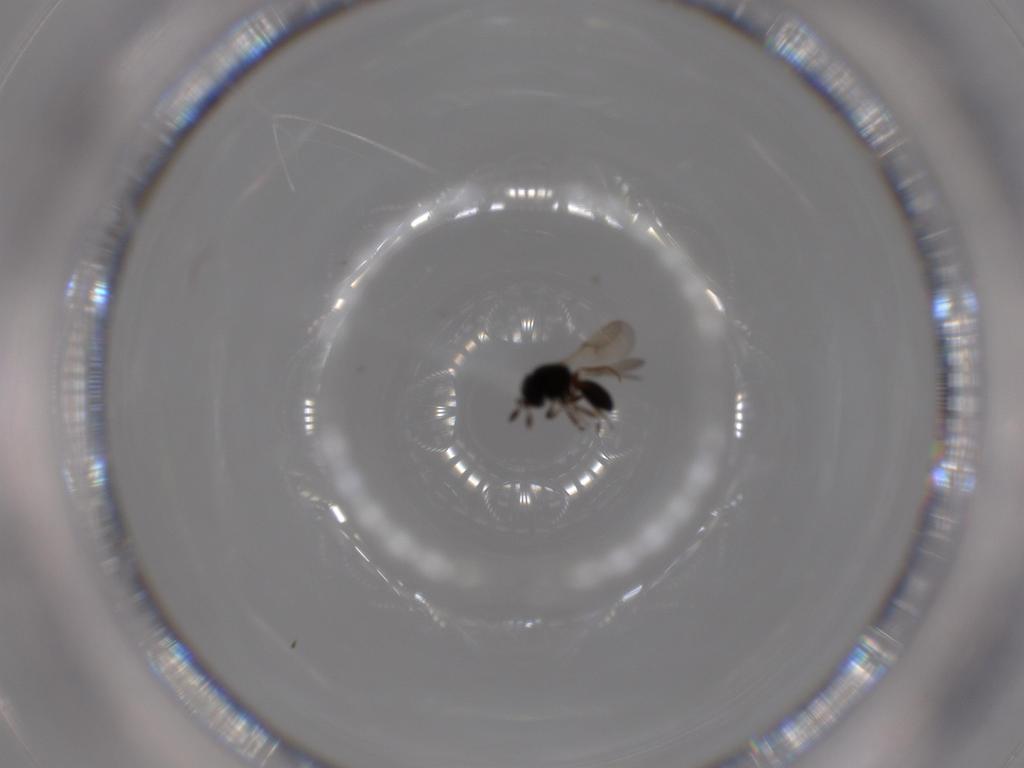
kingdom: Animalia
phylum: Arthropoda
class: Insecta
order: Hymenoptera
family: Scelionidae
